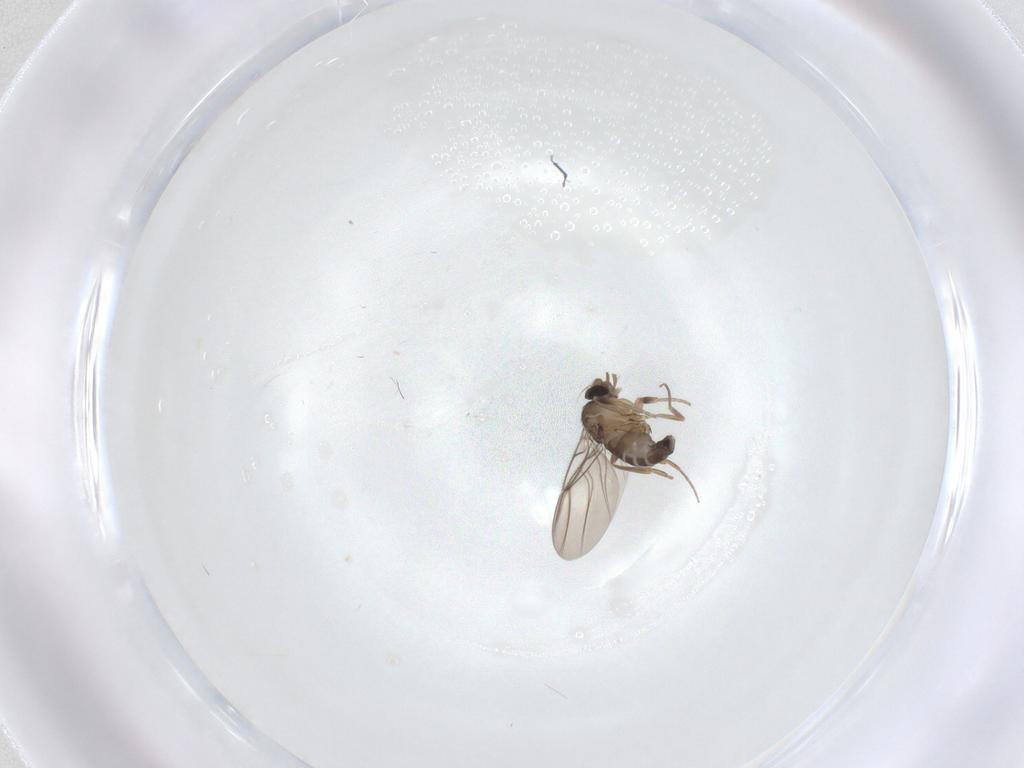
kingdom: Animalia
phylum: Arthropoda
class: Insecta
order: Diptera
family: Phoridae
